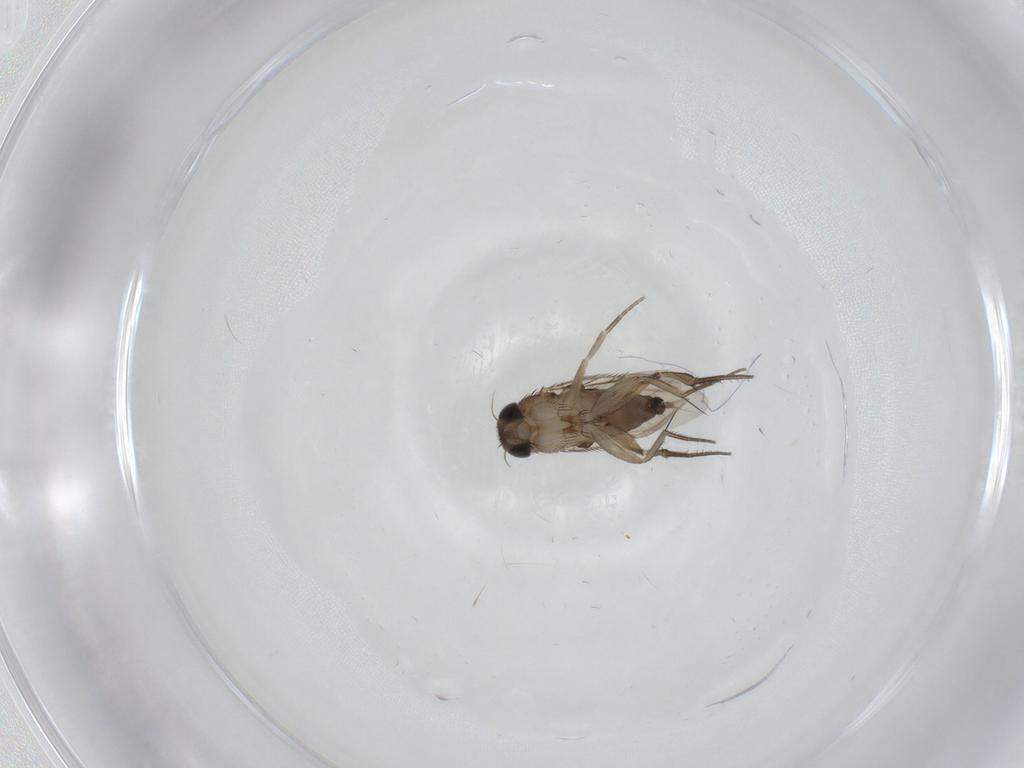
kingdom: Animalia
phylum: Arthropoda
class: Insecta
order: Diptera
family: Phoridae
